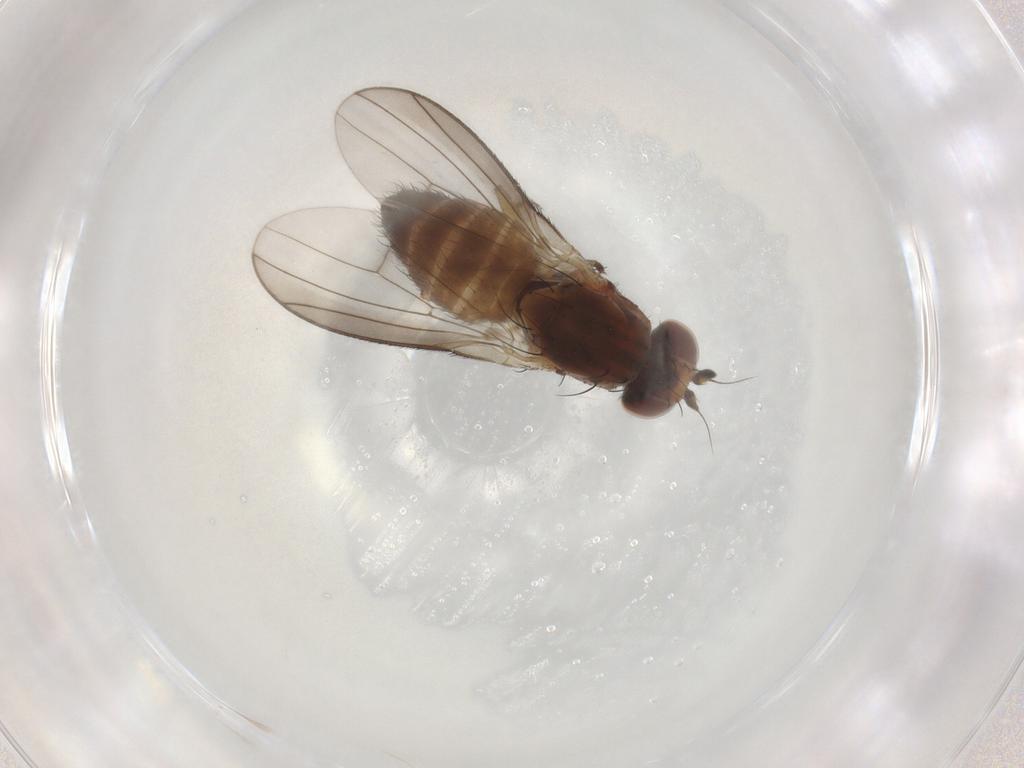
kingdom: Animalia
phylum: Arthropoda
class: Insecta
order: Diptera
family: Heleomyzidae
